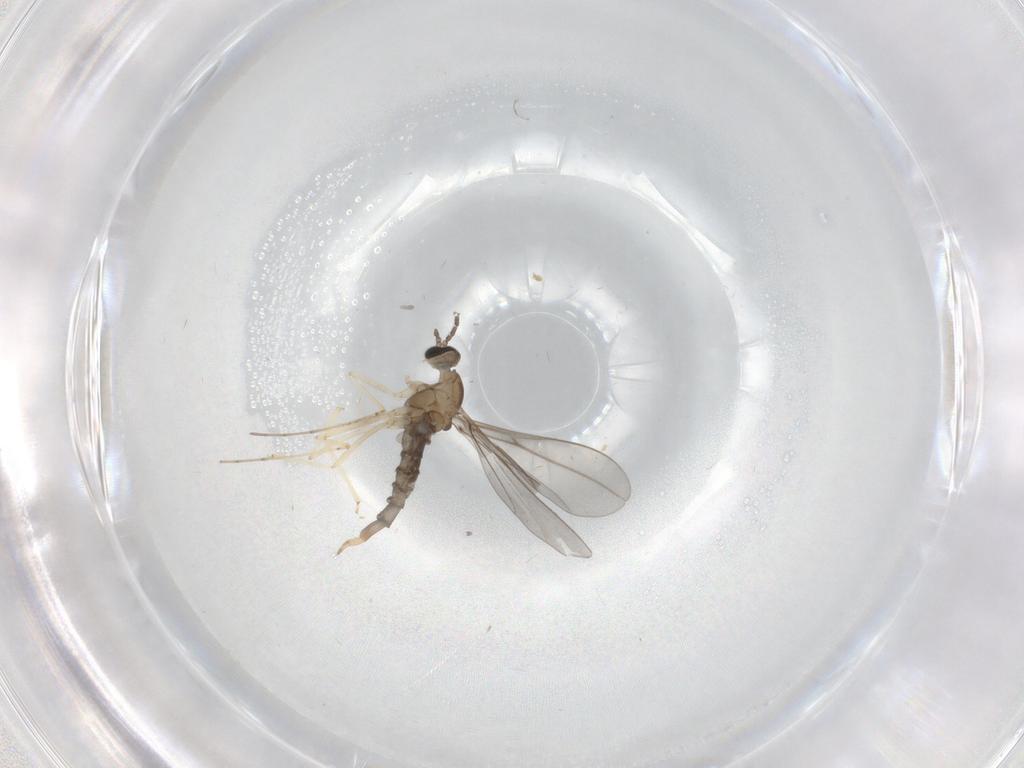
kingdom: Animalia
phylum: Arthropoda
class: Insecta
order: Diptera
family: Cecidomyiidae
